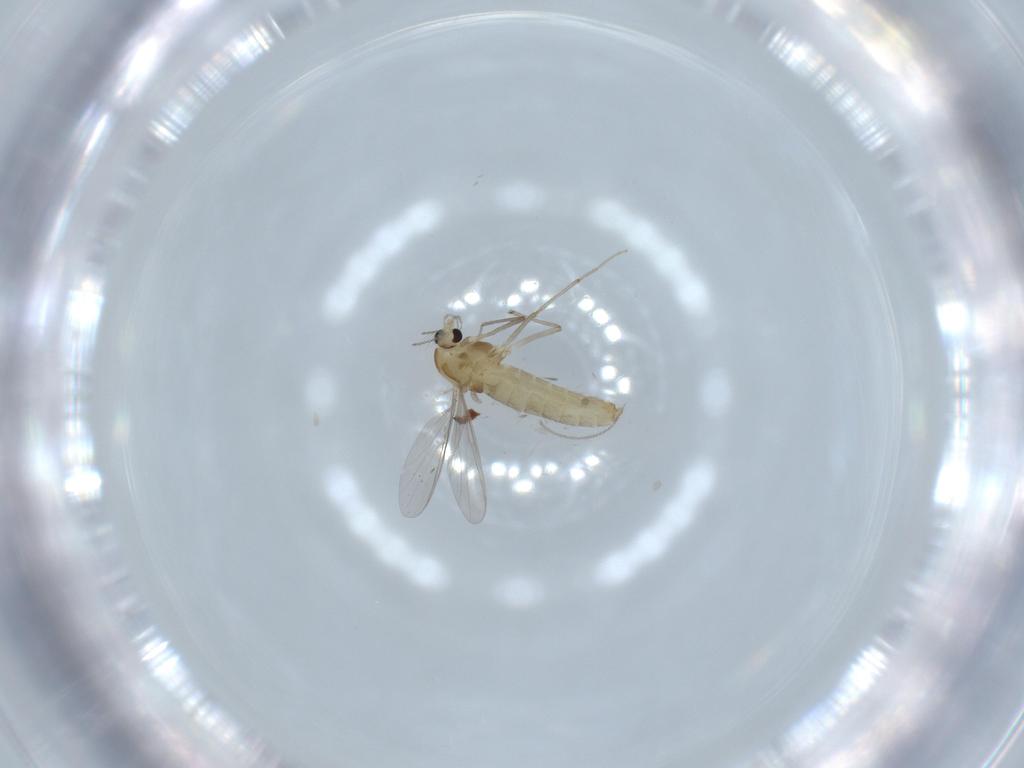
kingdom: Animalia
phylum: Arthropoda
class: Insecta
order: Diptera
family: Chironomidae
